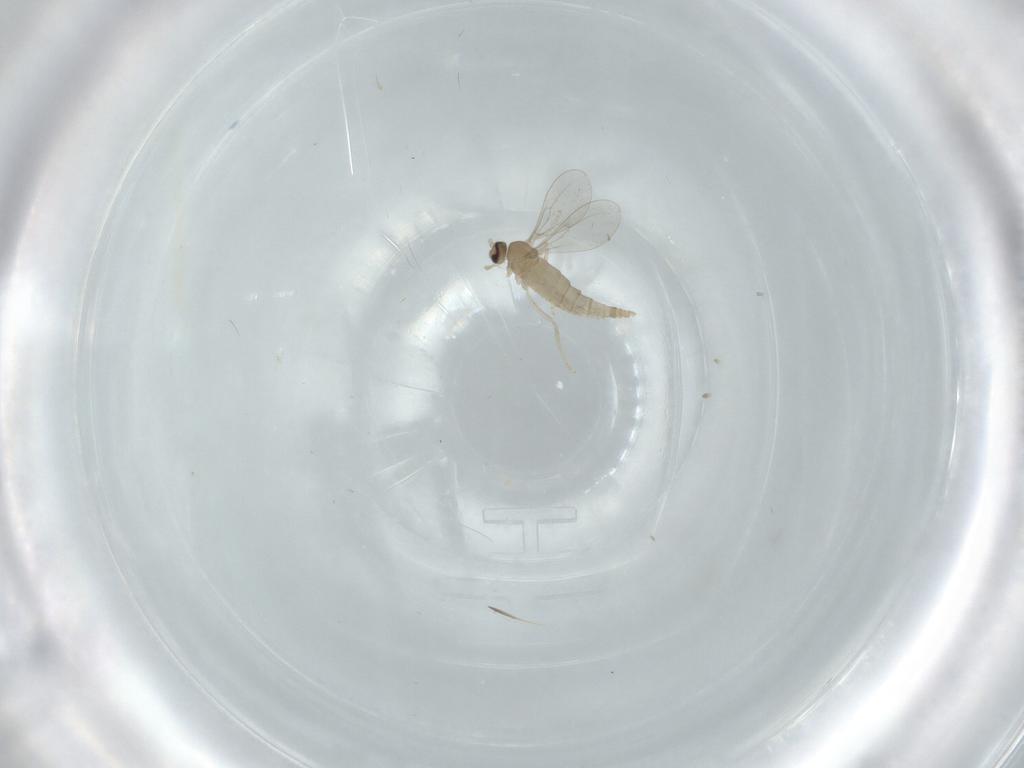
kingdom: Animalia
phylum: Arthropoda
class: Insecta
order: Diptera
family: Cecidomyiidae
